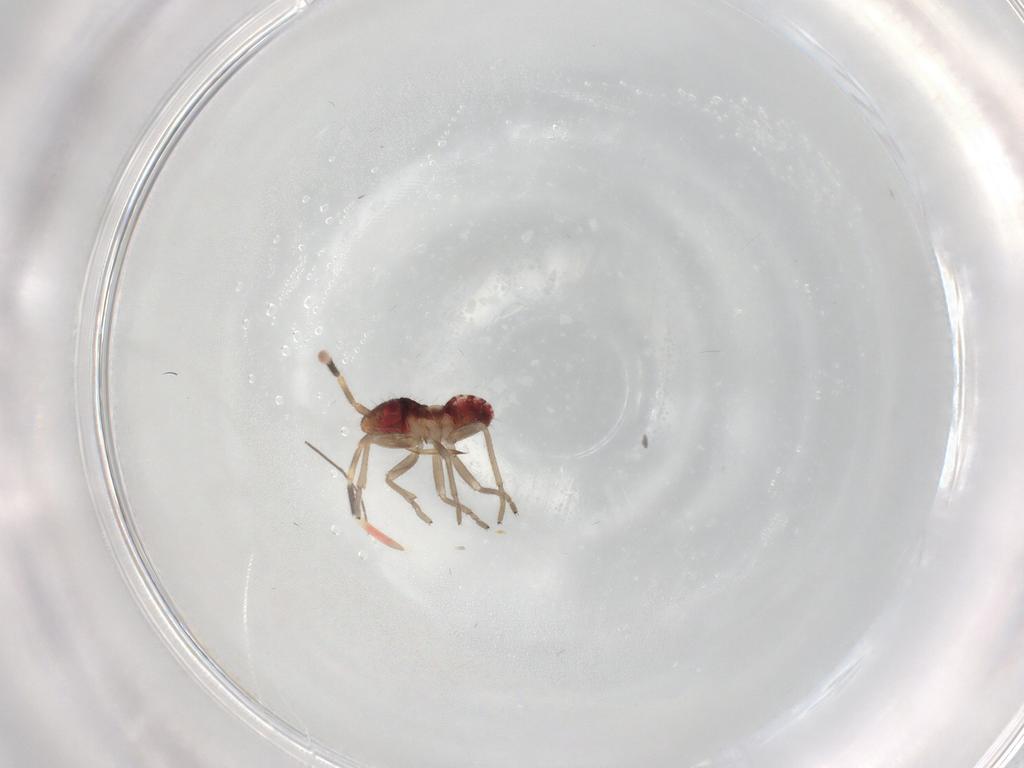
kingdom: Animalia
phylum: Arthropoda
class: Insecta
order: Hemiptera
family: Rhyparochromidae
